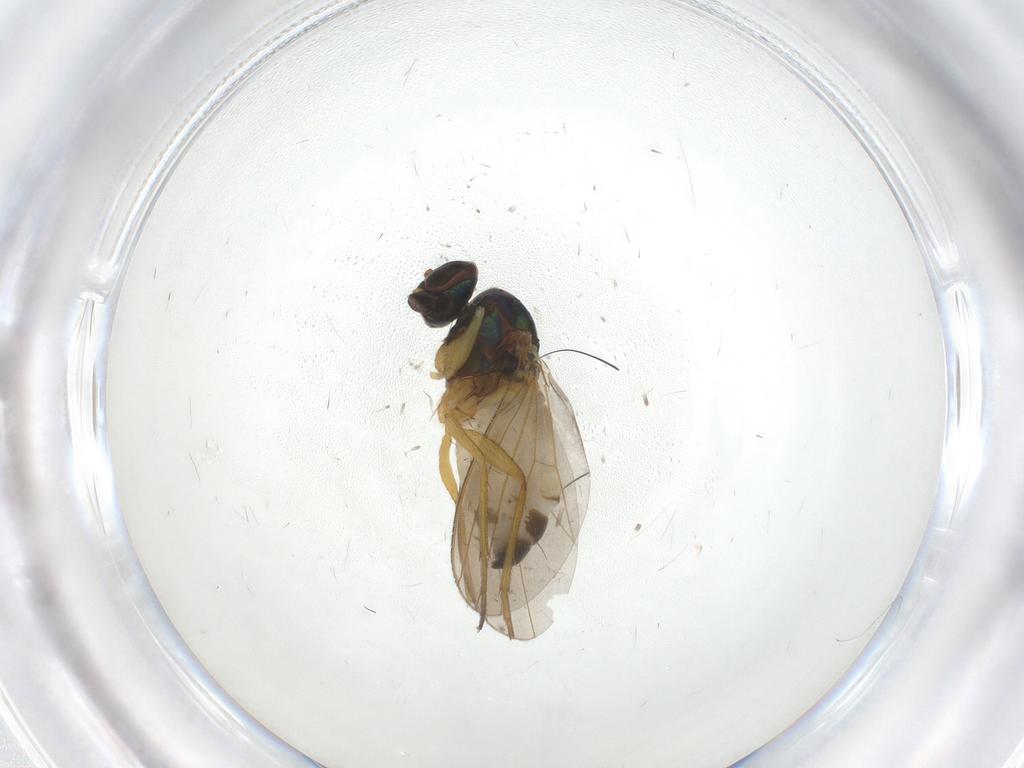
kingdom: Animalia
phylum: Arthropoda
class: Insecta
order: Diptera
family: Dolichopodidae
